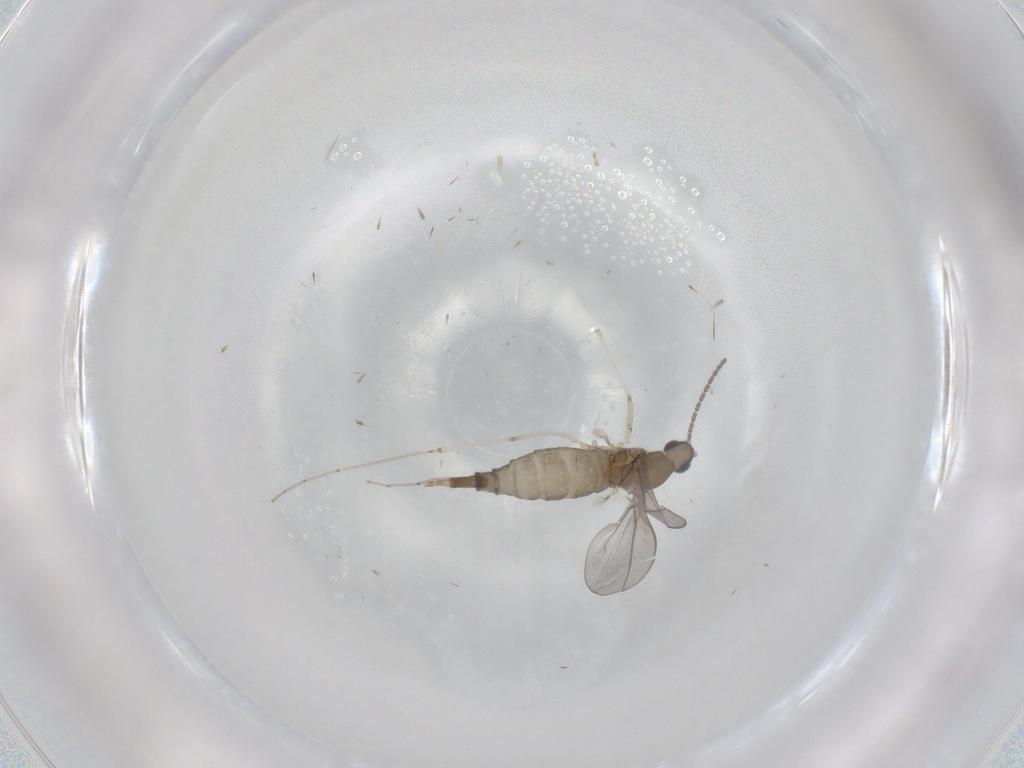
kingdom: Animalia
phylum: Arthropoda
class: Insecta
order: Diptera
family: Cecidomyiidae
